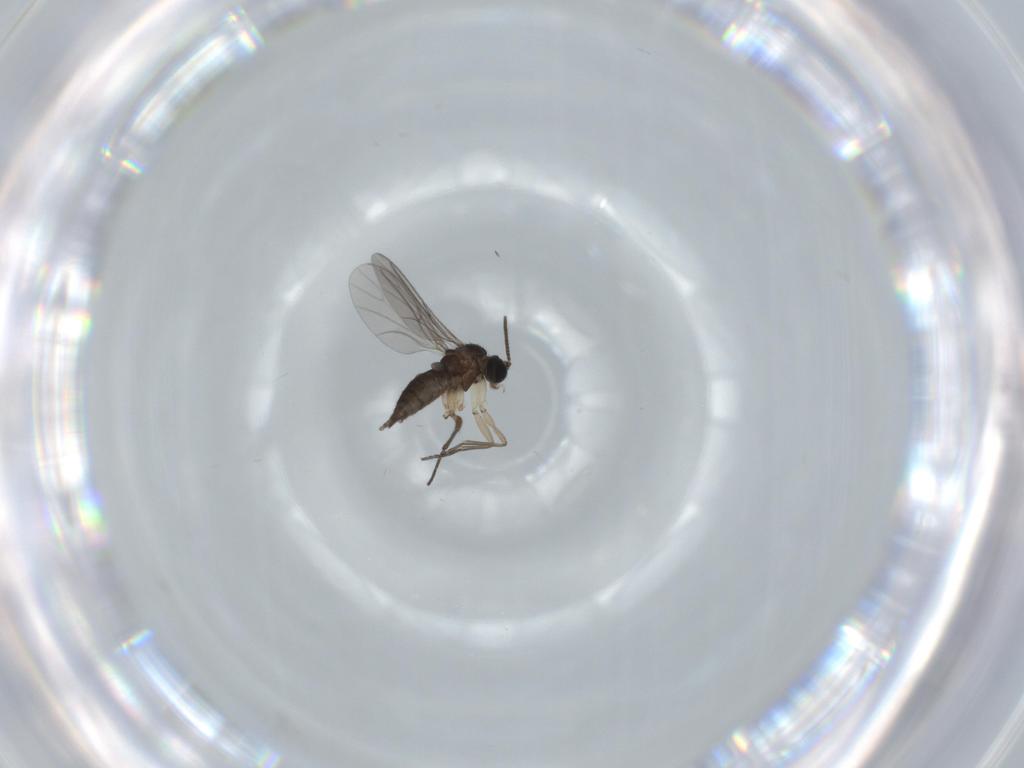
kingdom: Animalia
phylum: Arthropoda
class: Insecta
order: Diptera
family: Sciaridae
